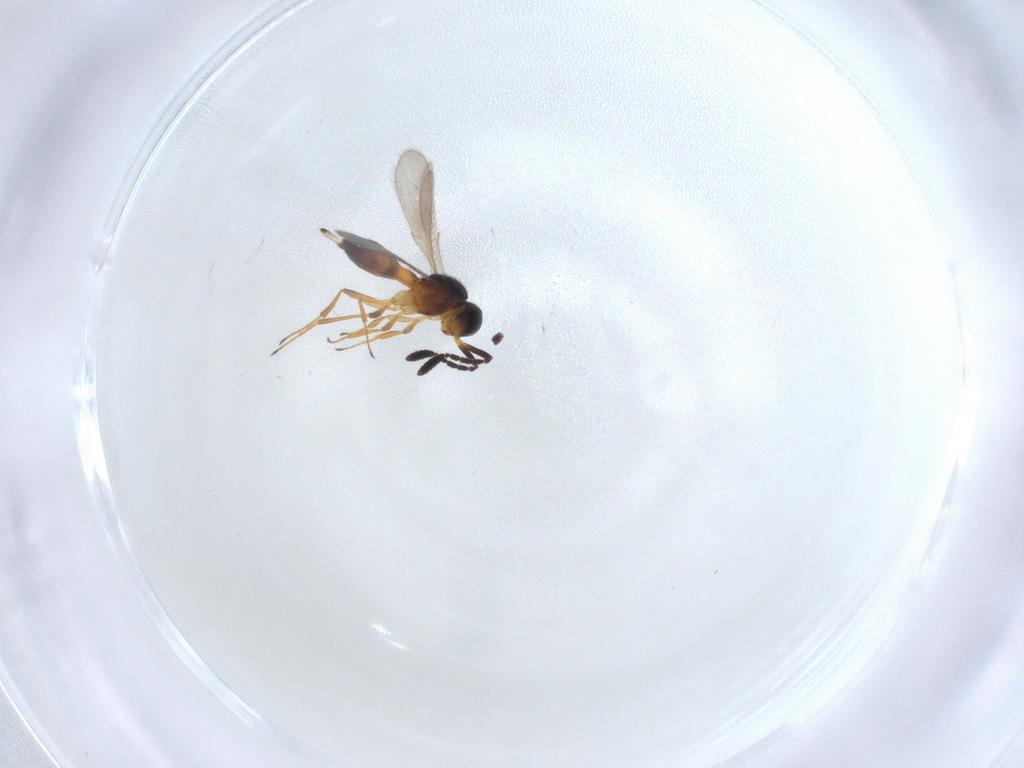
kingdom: Animalia
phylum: Arthropoda
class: Insecta
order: Hymenoptera
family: Scelionidae
